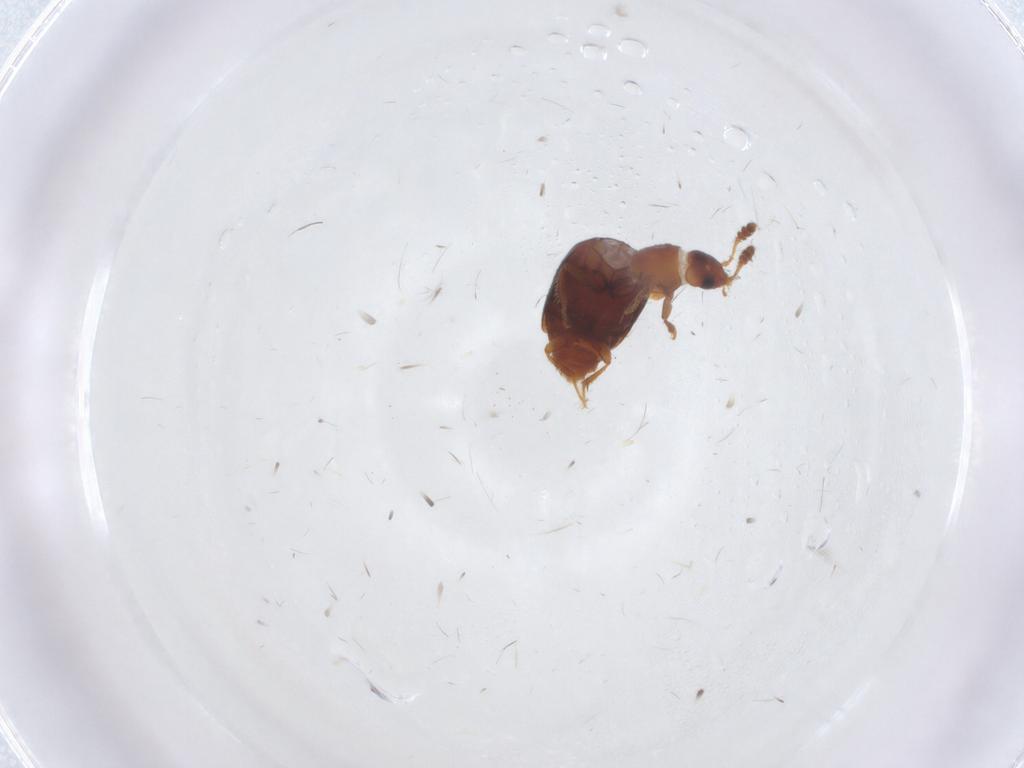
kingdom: Animalia
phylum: Arthropoda
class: Insecta
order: Coleoptera
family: Staphylinidae
